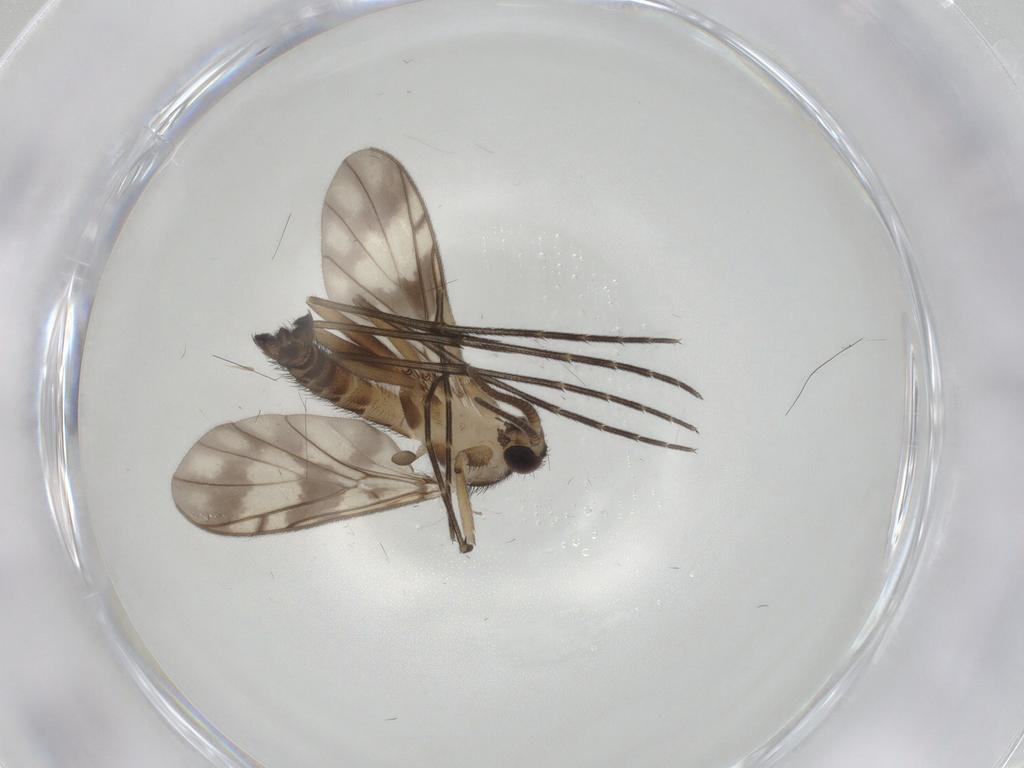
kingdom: Animalia
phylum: Arthropoda
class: Insecta
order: Diptera
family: Keroplatidae
